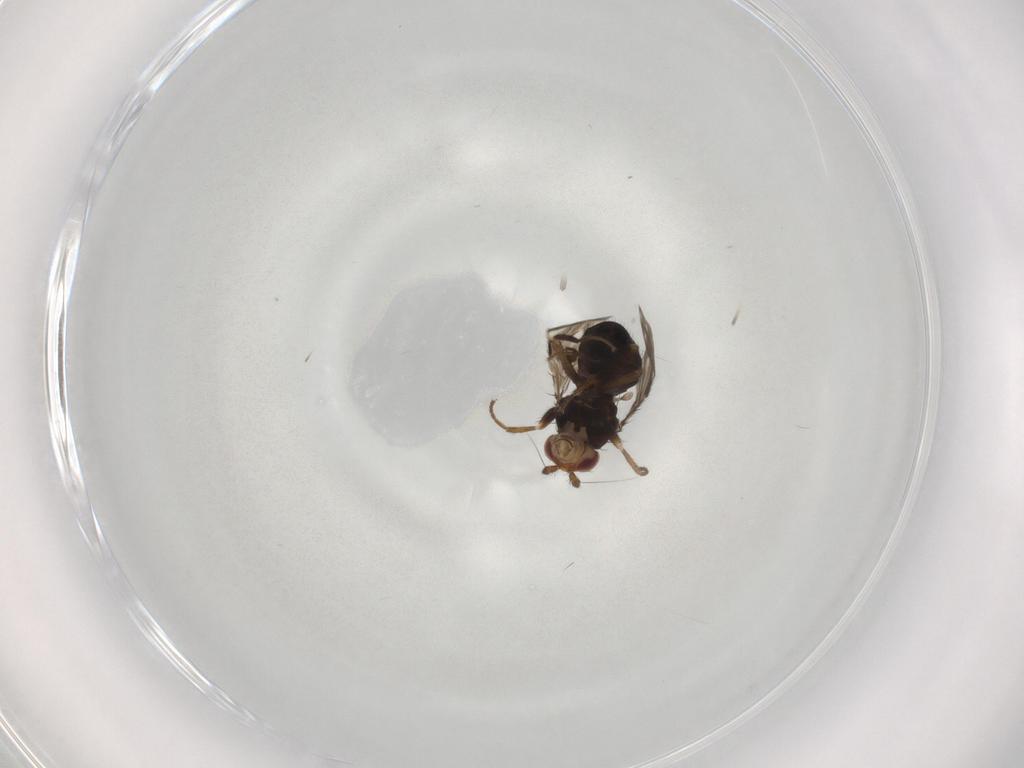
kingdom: Animalia
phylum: Arthropoda
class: Insecta
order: Diptera
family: Sphaeroceridae
